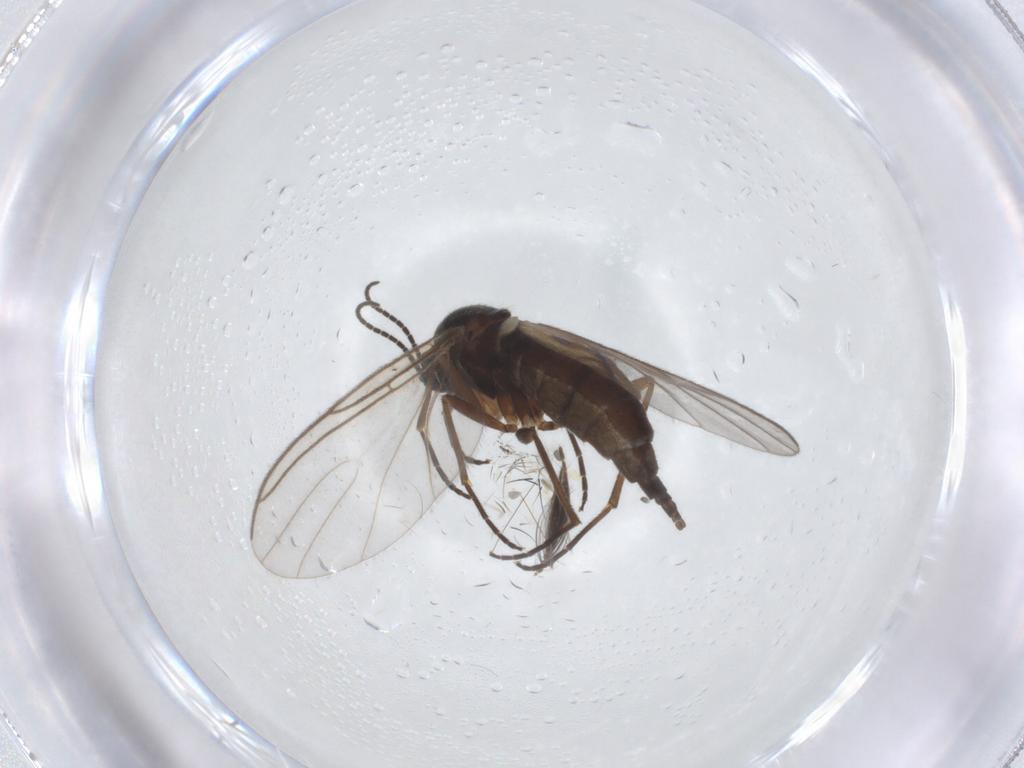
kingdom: Animalia
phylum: Arthropoda
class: Insecta
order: Diptera
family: Sciaridae
